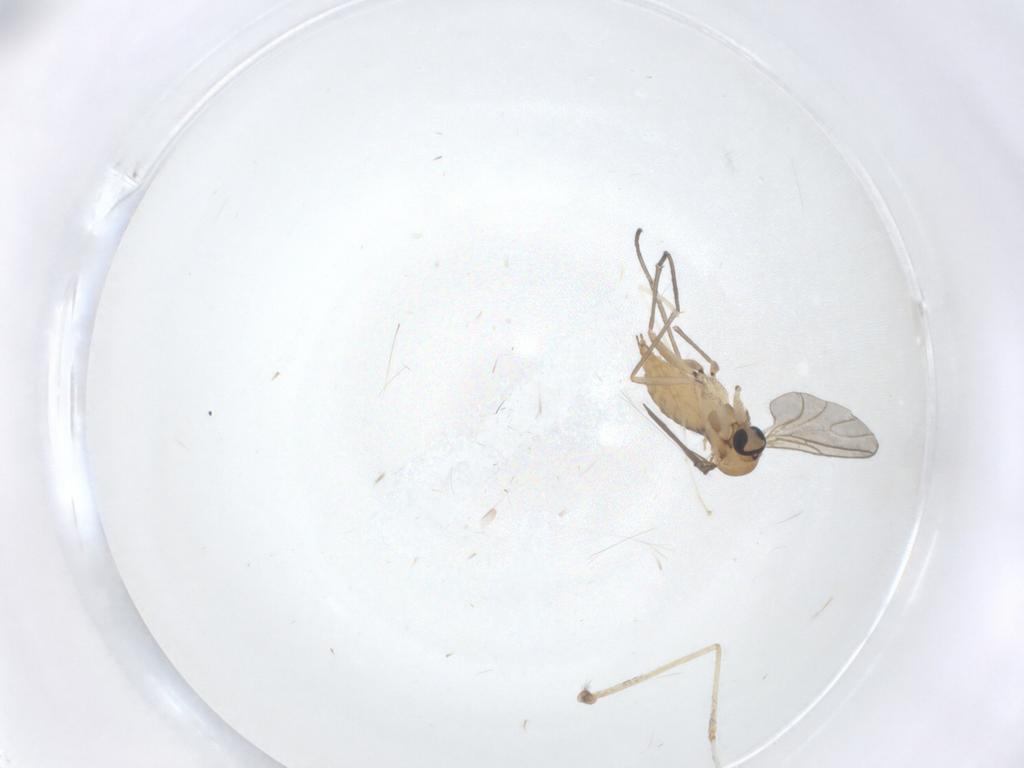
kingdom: Animalia
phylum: Arthropoda
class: Insecta
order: Diptera
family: Sciaridae
